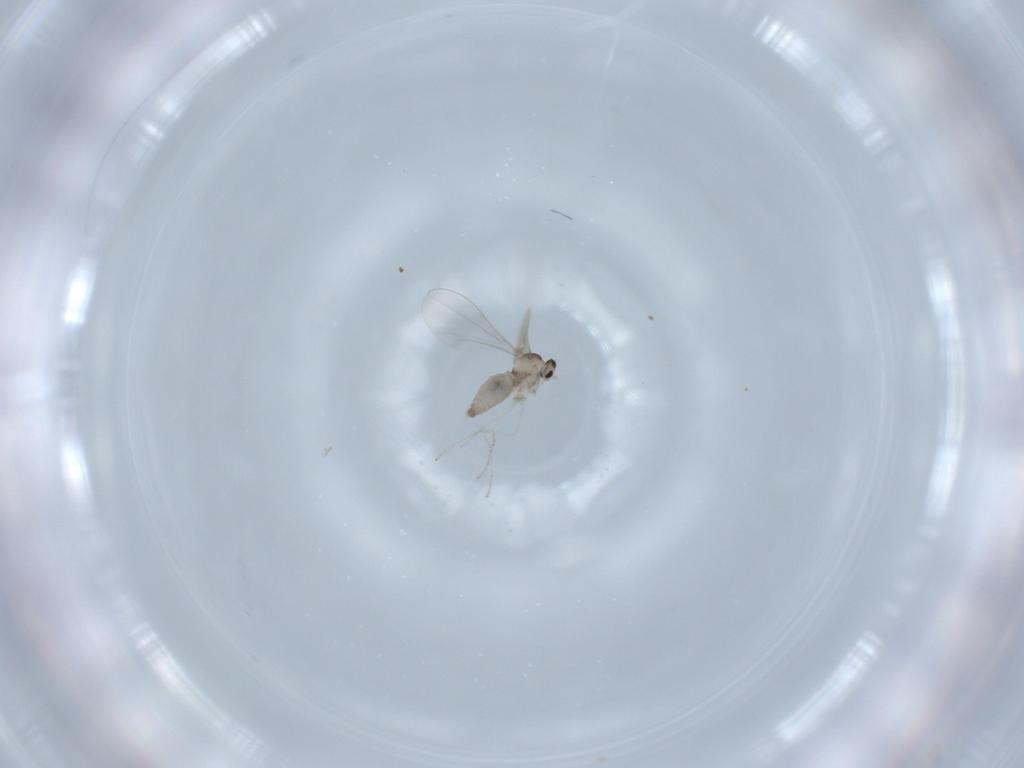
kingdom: Animalia
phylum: Arthropoda
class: Insecta
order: Diptera
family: Cecidomyiidae
